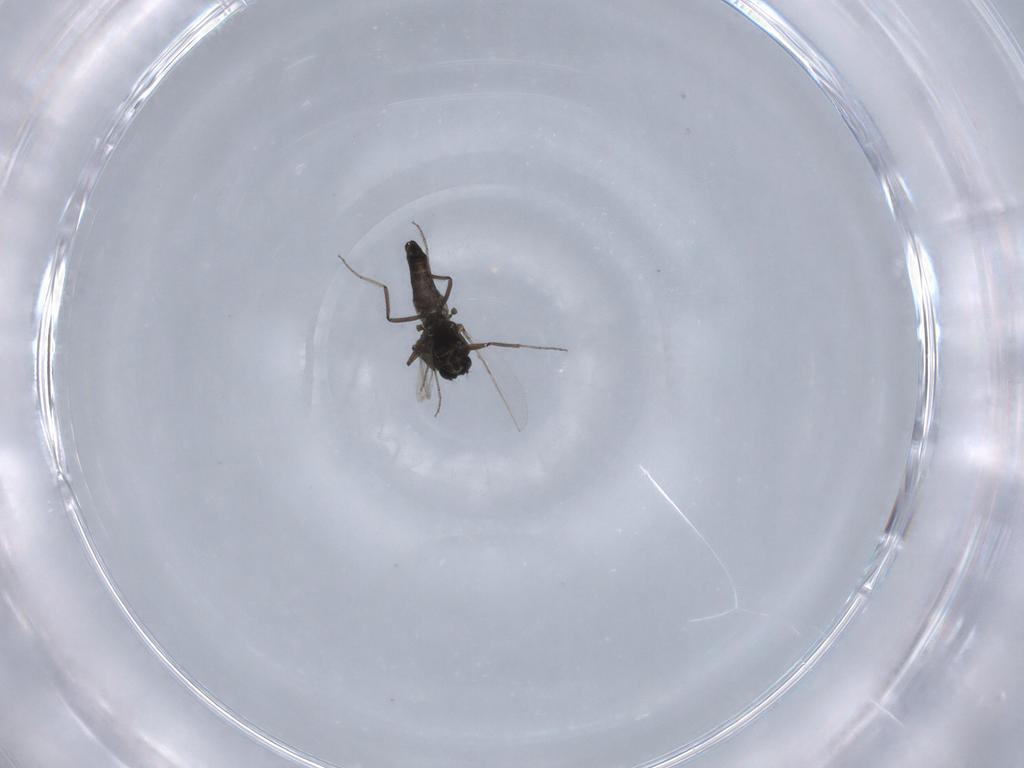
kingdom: Animalia
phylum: Arthropoda
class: Insecta
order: Diptera
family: Ceratopogonidae
